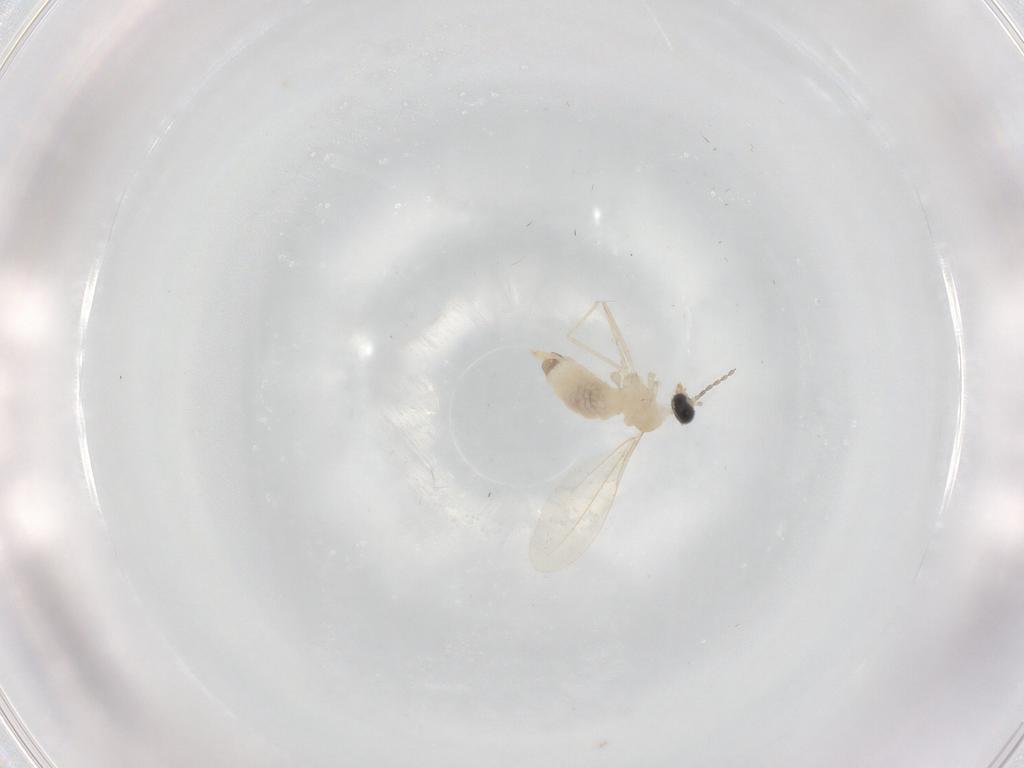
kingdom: Animalia
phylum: Arthropoda
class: Insecta
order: Diptera
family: Cecidomyiidae
